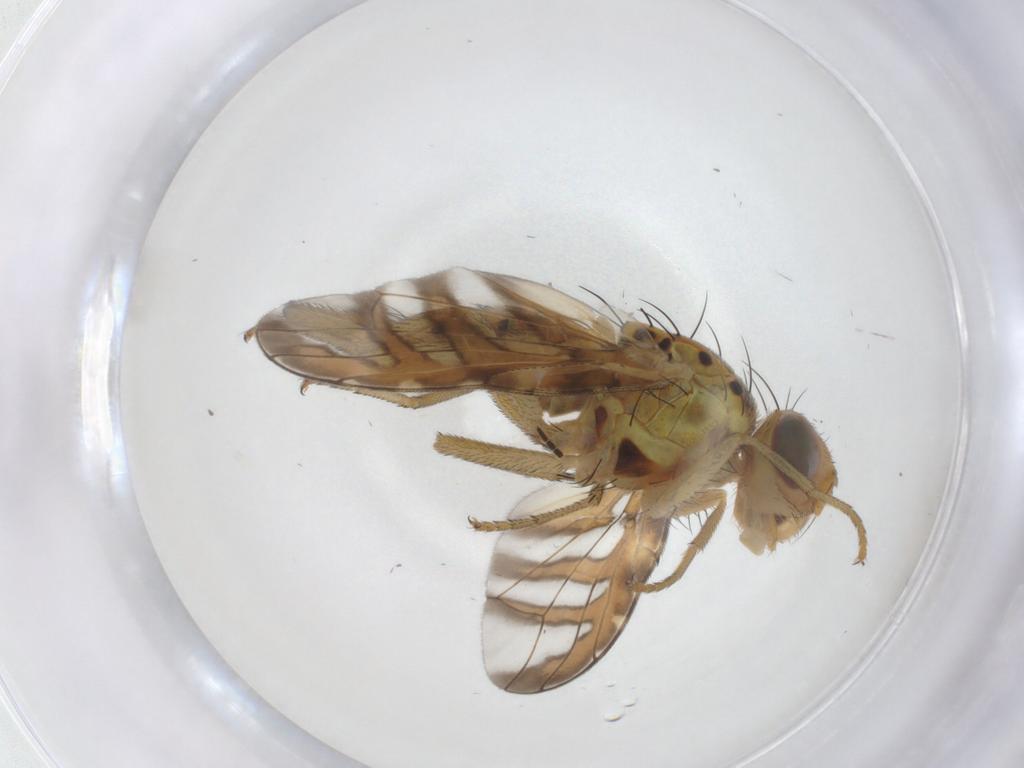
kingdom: Animalia
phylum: Arthropoda
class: Insecta
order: Diptera
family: Tephritidae
